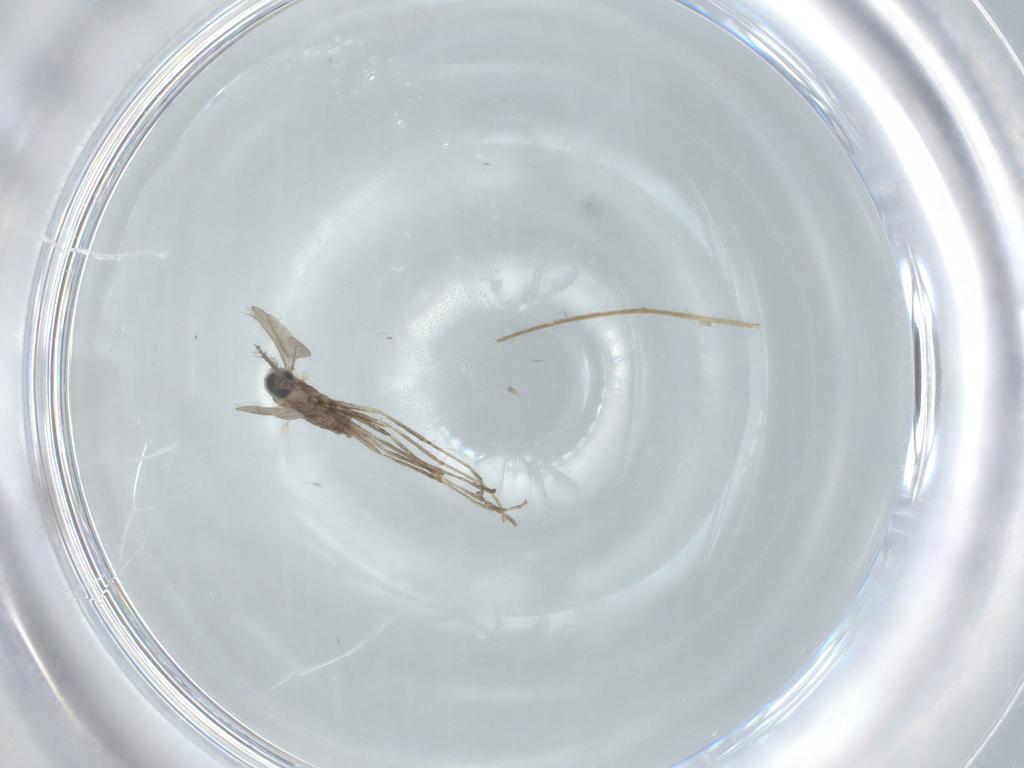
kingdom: Animalia
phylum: Arthropoda
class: Insecta
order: Diptera
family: Cecidomyiidae
